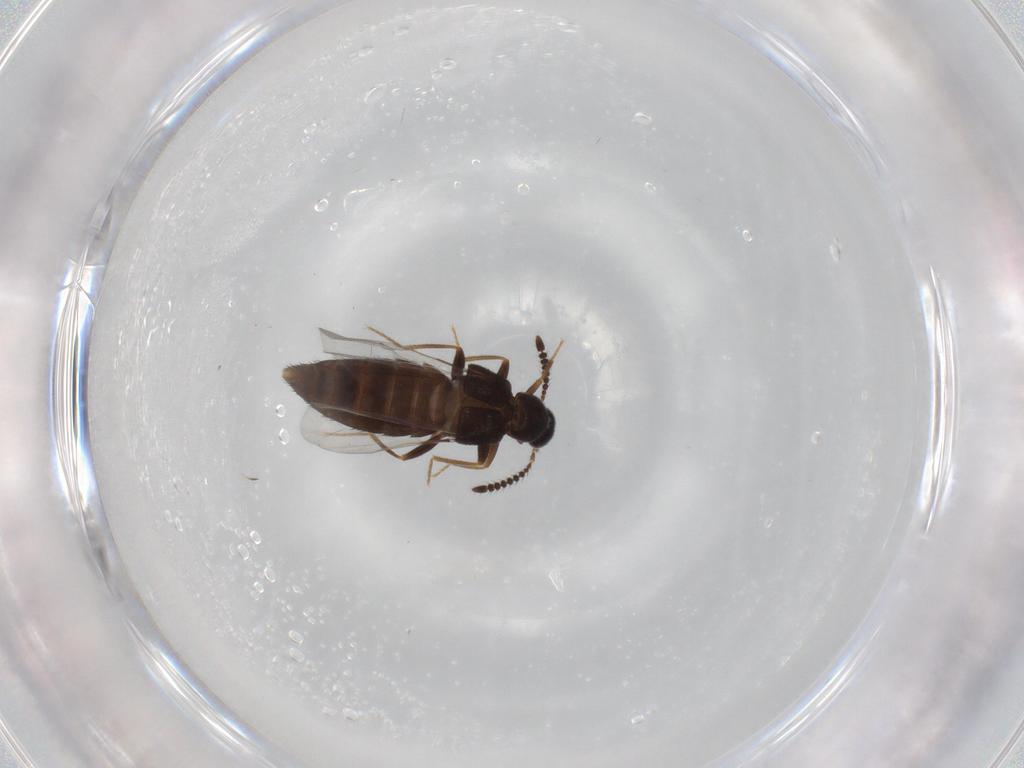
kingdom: Animalia
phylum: Arthropoda
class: Insecta
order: Coleoptera
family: Staphylinidae
